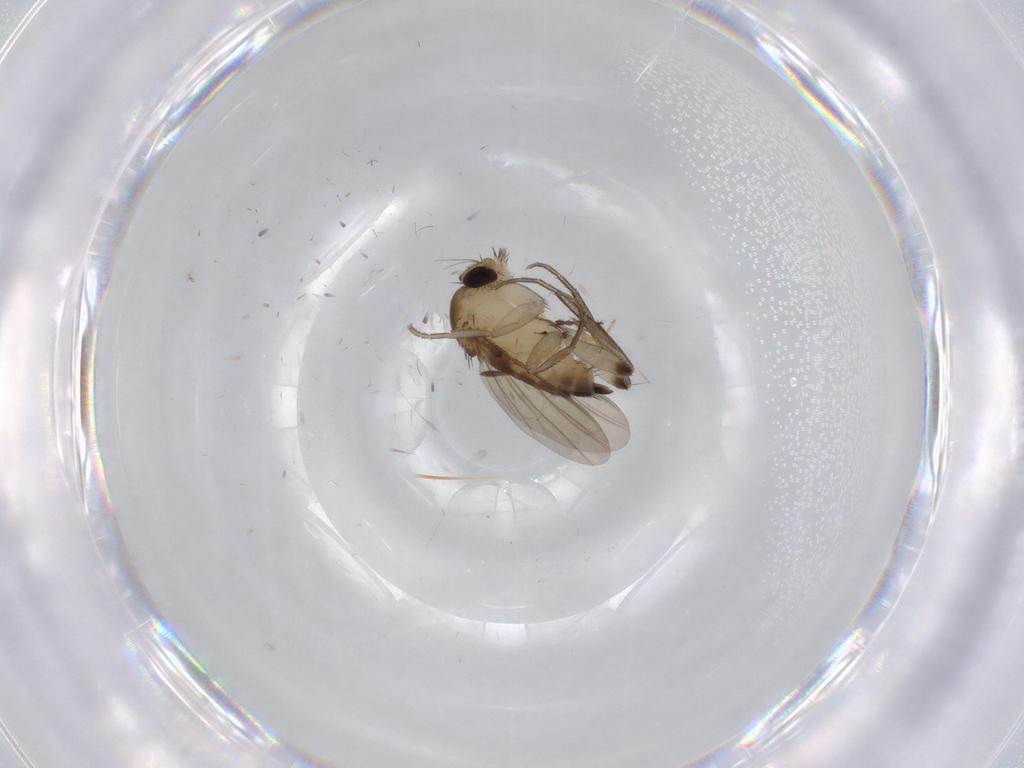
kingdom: Animalia
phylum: Arthropoda
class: Insecta
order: Diptera
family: Phoridae
